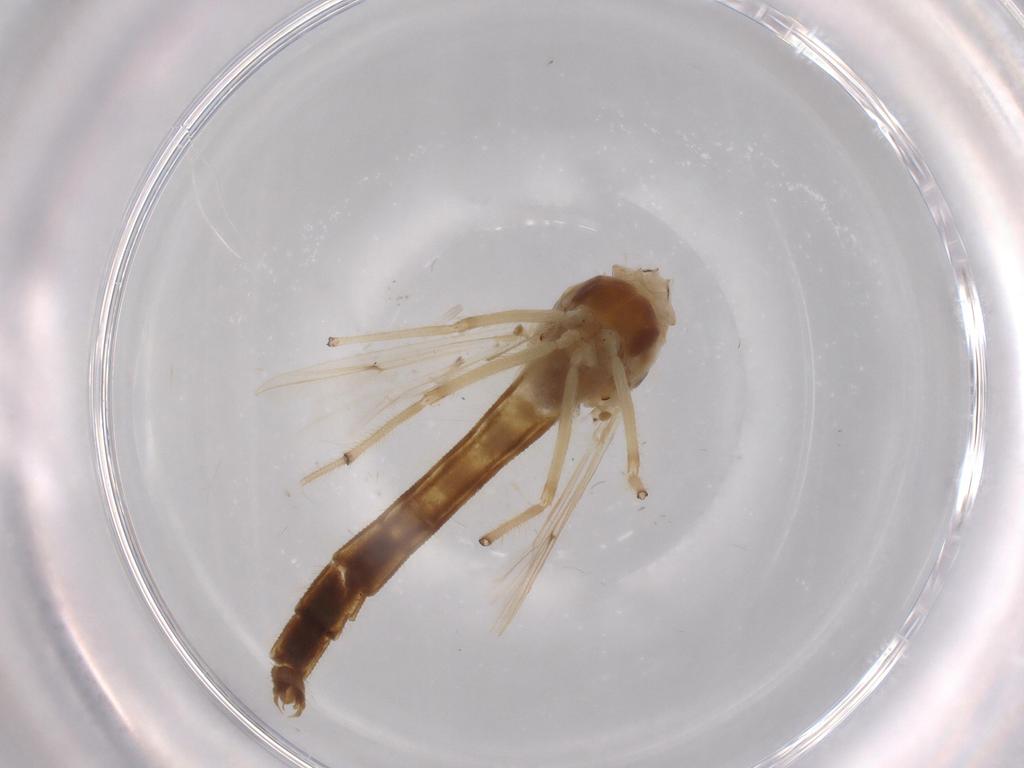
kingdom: Animalia
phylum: Arthropoda
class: Insecta
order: Diptera
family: Chironomidae
